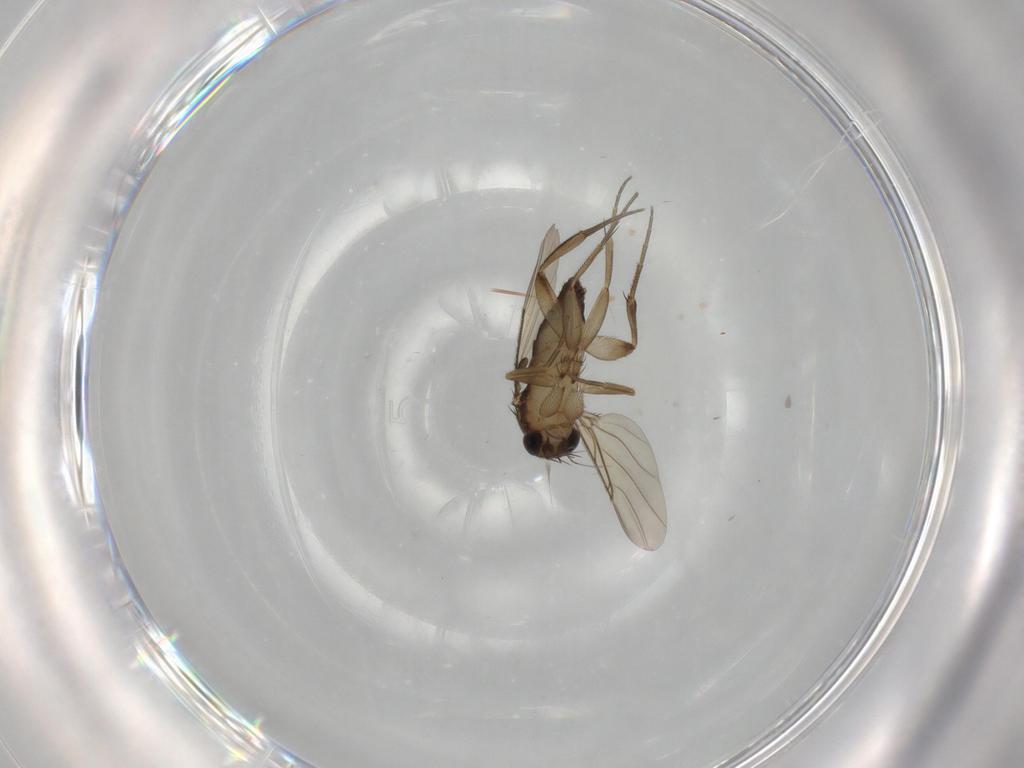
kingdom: Animalia
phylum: Arthropoda
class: Insecta
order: Diptera
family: Phoridae
